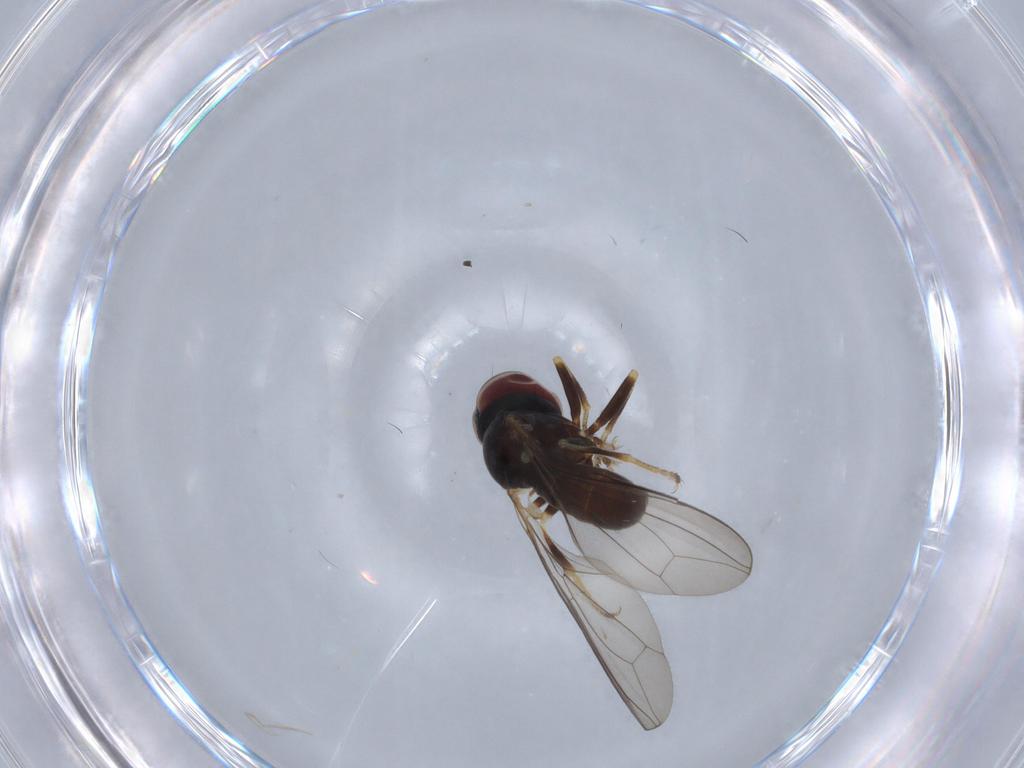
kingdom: Animalia
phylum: Arthropoda
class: Insecta
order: Diptera
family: Pipunculidae
